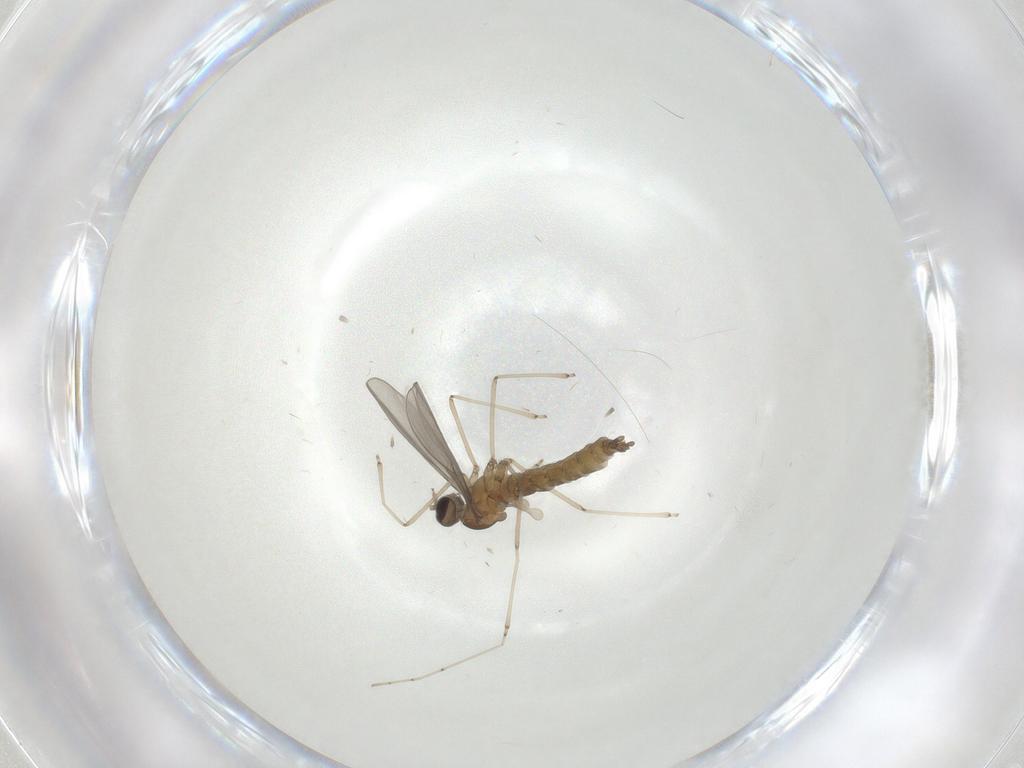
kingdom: Animalia
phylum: Arthropoda
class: Insecta
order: Diptera
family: Cecidomyiidae
